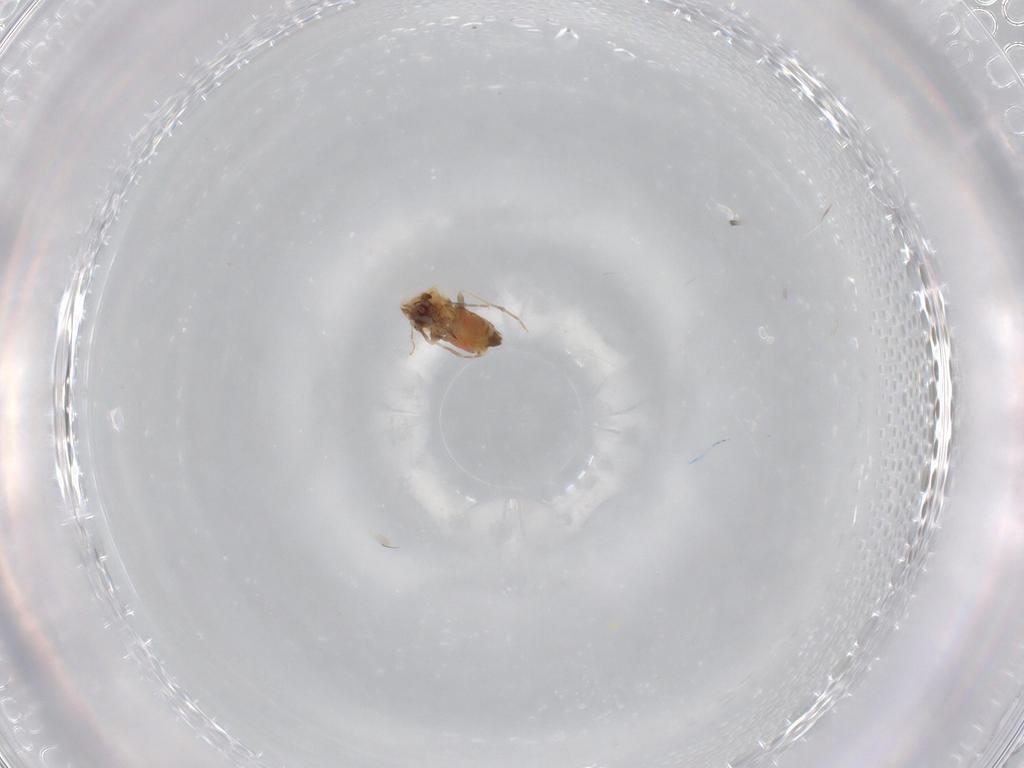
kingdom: Animalia
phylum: Arthropoda
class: Insecta
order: Hemiptera
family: Aleyrodidae
